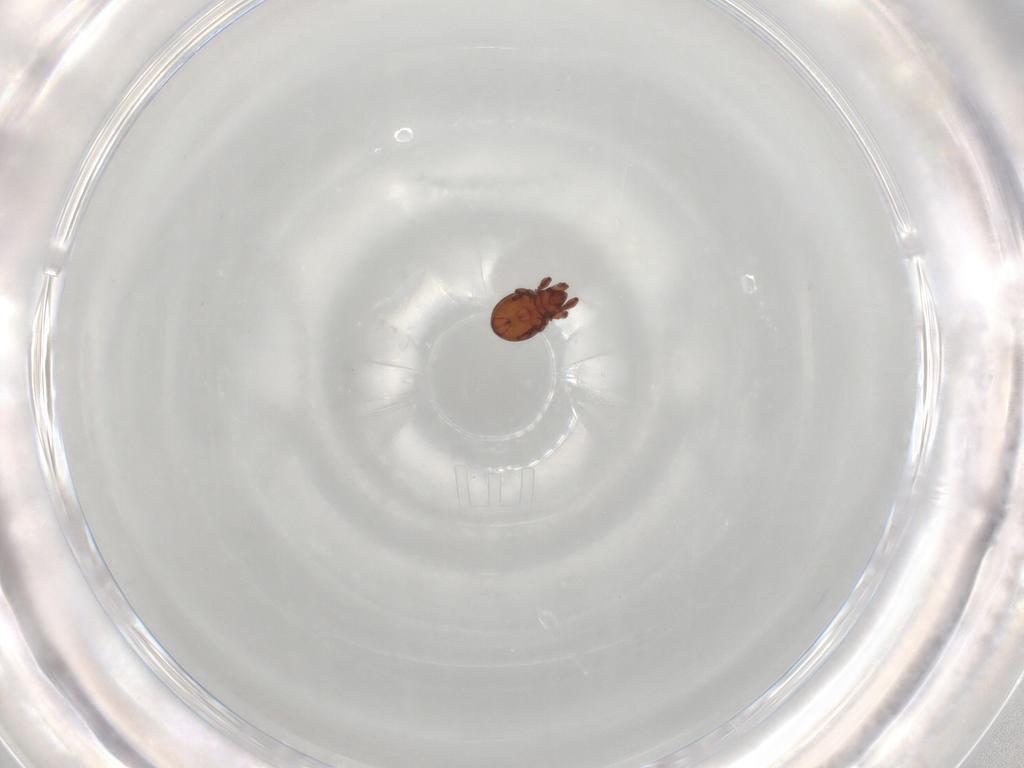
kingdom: Animalia
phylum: Arthropoda
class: Arachnida
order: Sarcoptiformes
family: Eremaeidae
